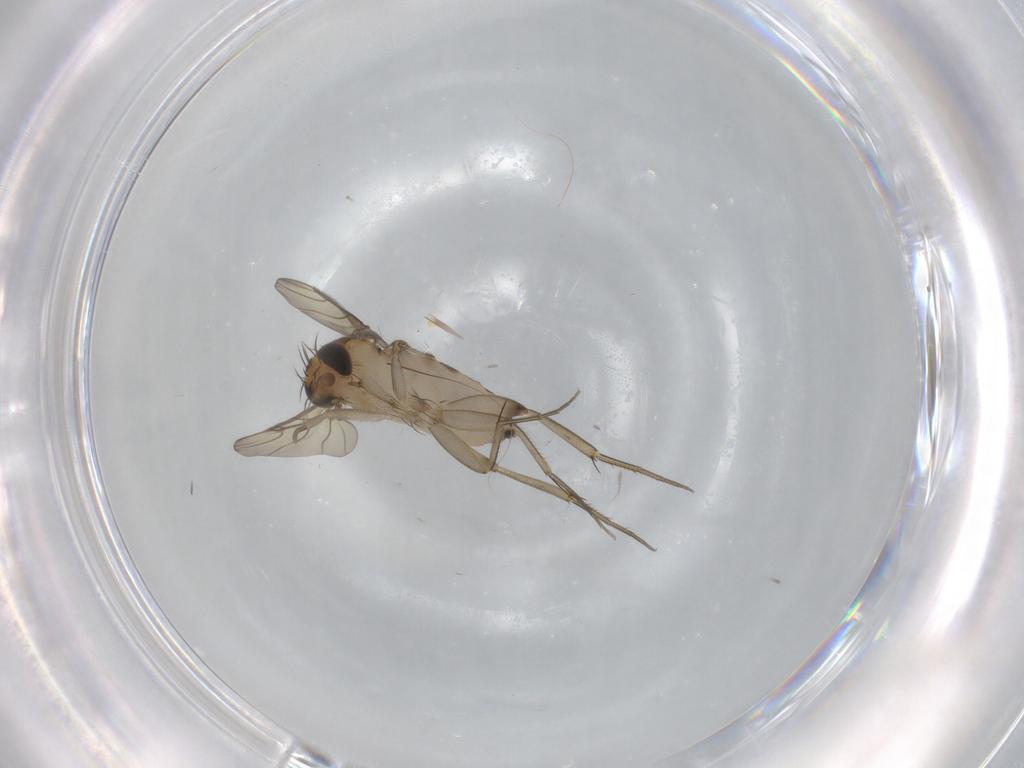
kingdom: Animalia
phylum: Arthropoda
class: Insecta
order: Diptera
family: Phoridae
